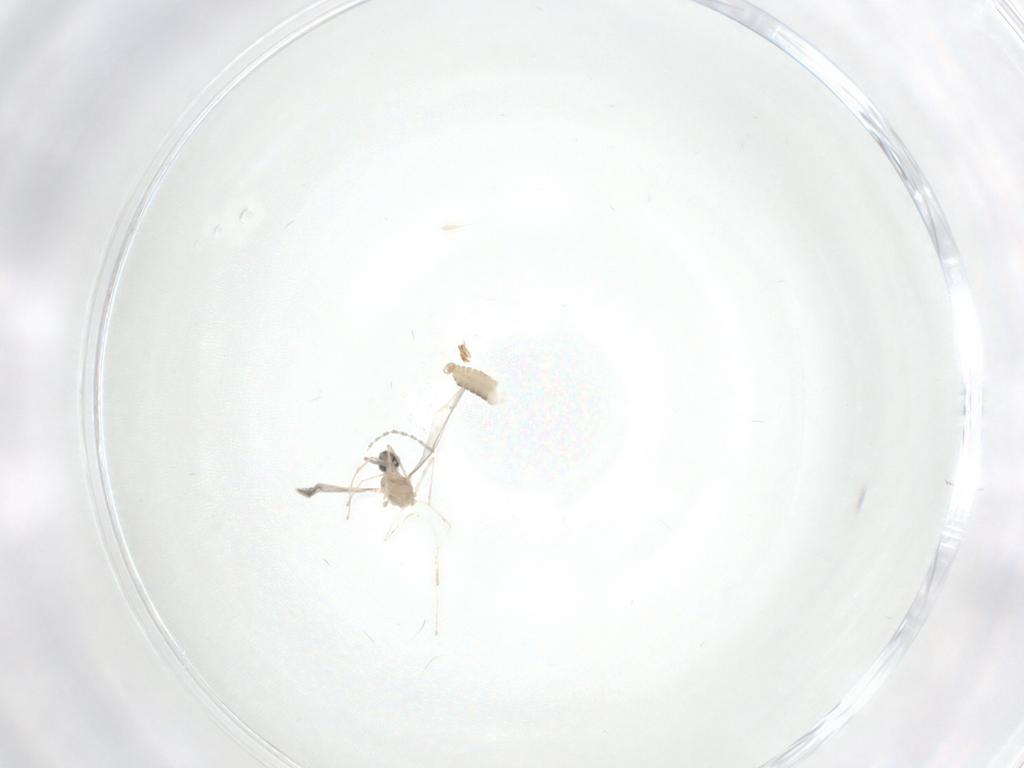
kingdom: Animalia
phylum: Arthropoda
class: Insecta
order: Diptera
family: Cecidomyiidae
